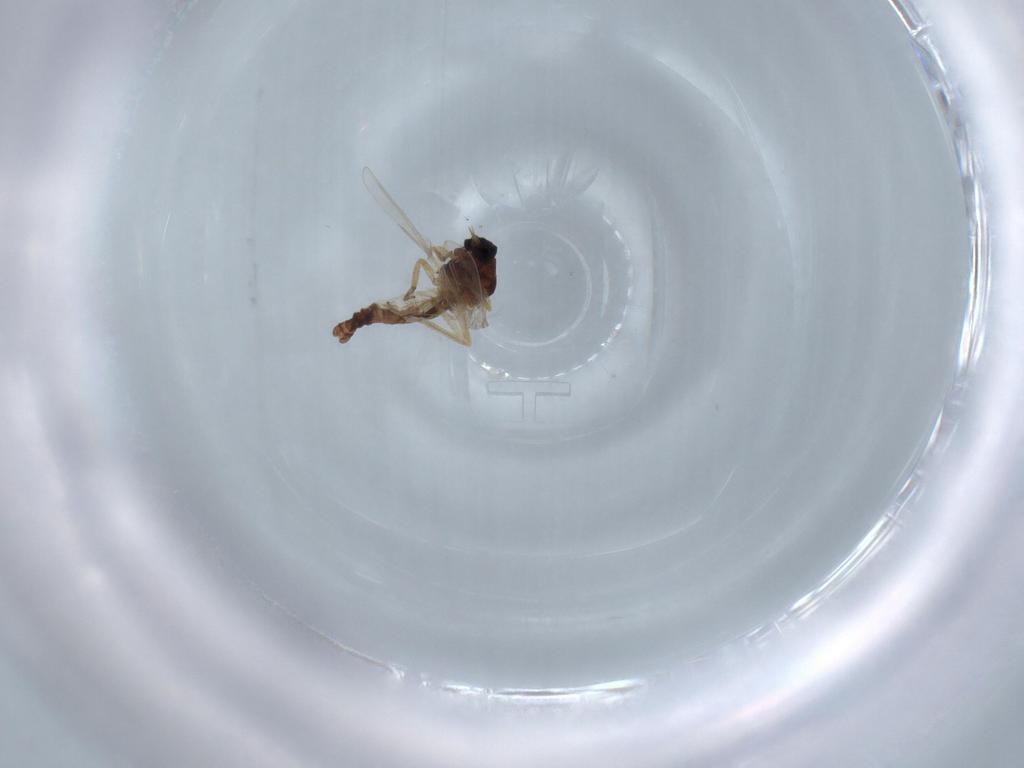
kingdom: Animalia
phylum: Arthropoda
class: Insecta
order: Diptera
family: Ceratopogonidae
